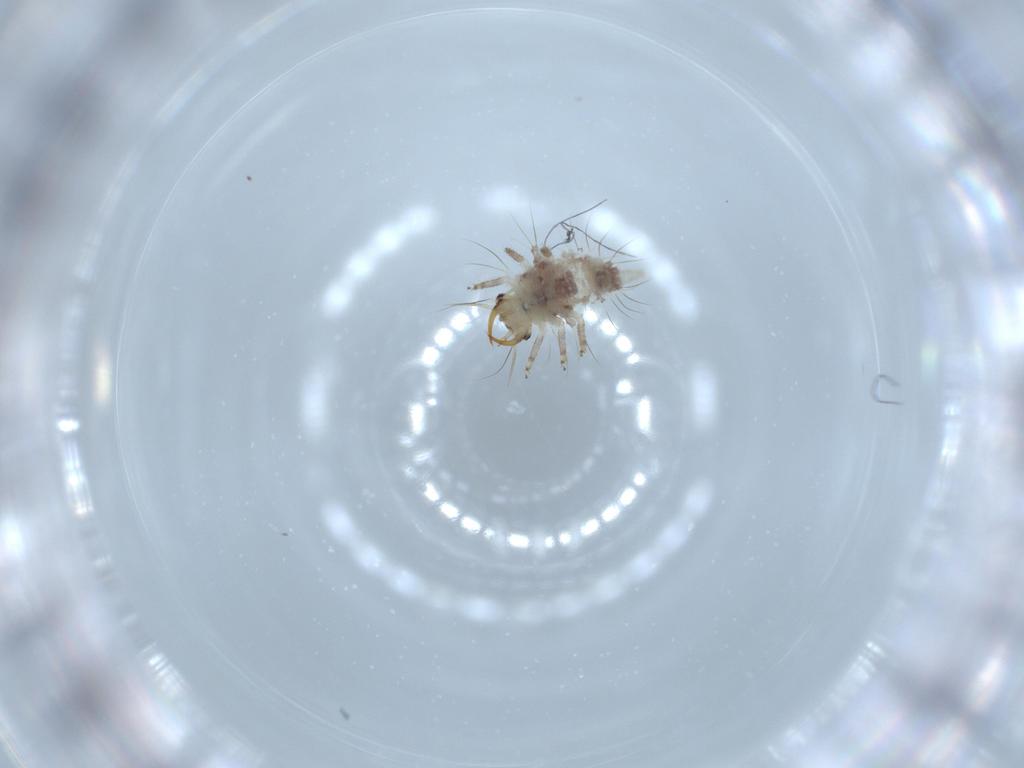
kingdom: Animalia
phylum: Arthropoda
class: Insecta
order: Neuroptera
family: Chrysopidae
